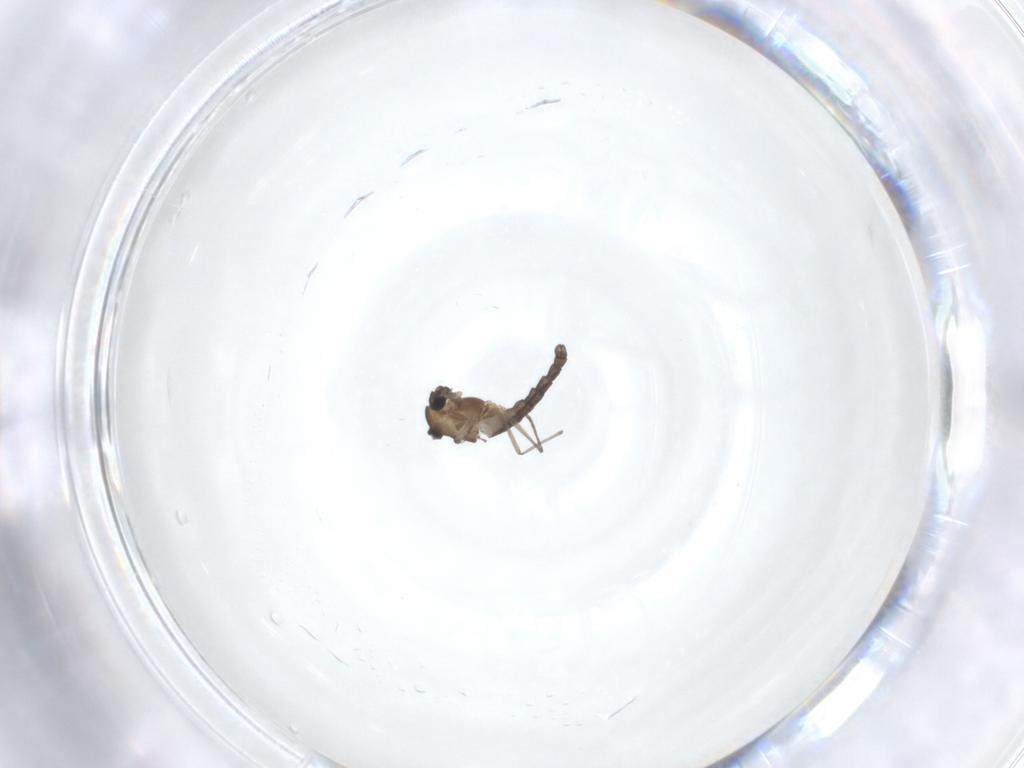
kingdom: Animalia
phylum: Arthropoda
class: Insecta
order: Diptera
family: Chironomidae
